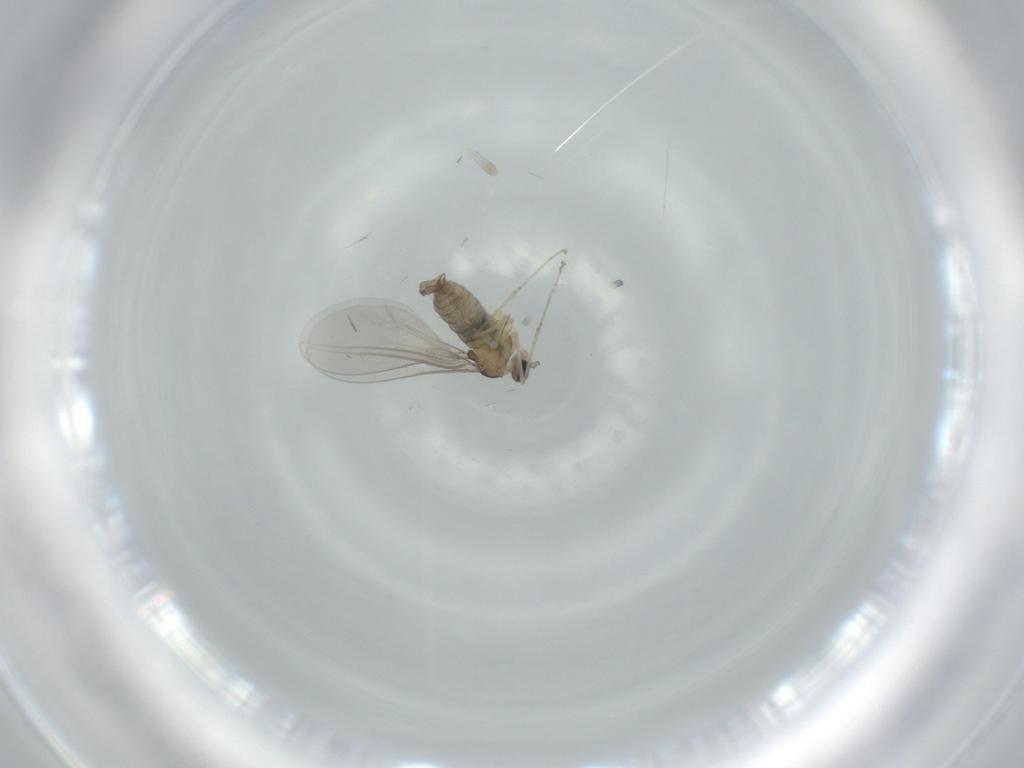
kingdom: Animalia
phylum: Arthropoda
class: Insecta
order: Diptera
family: Cecidomyiidae
